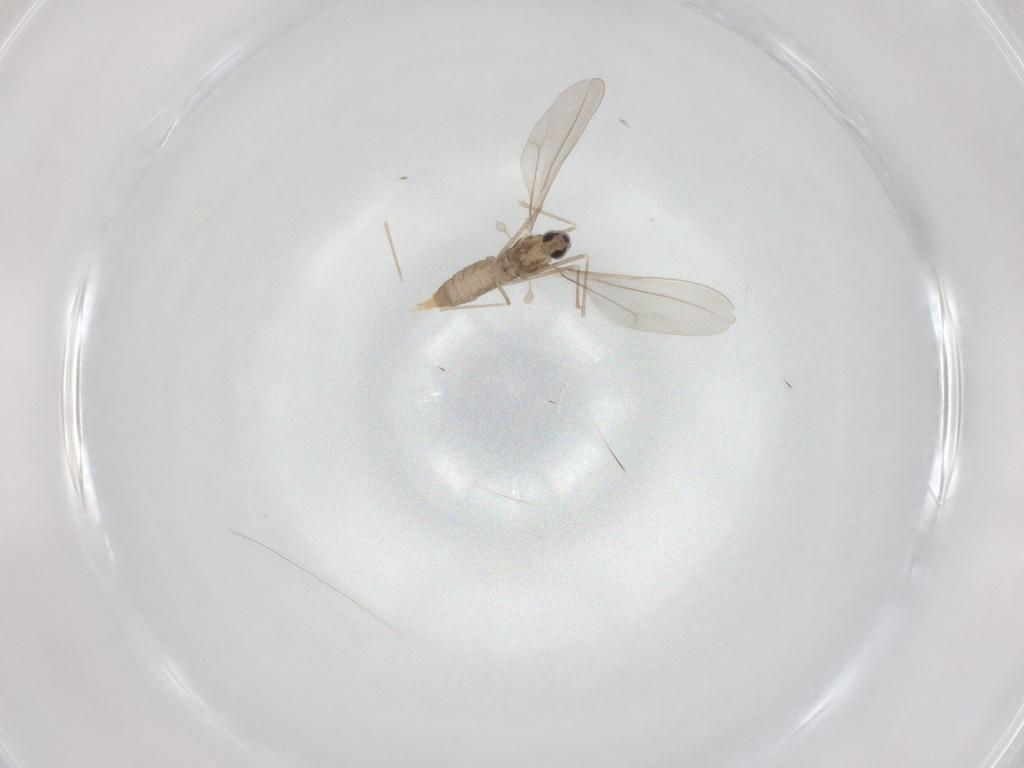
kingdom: Animalia
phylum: Arthropoda
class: Insecta
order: Diptera
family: Cecidomyiidae
